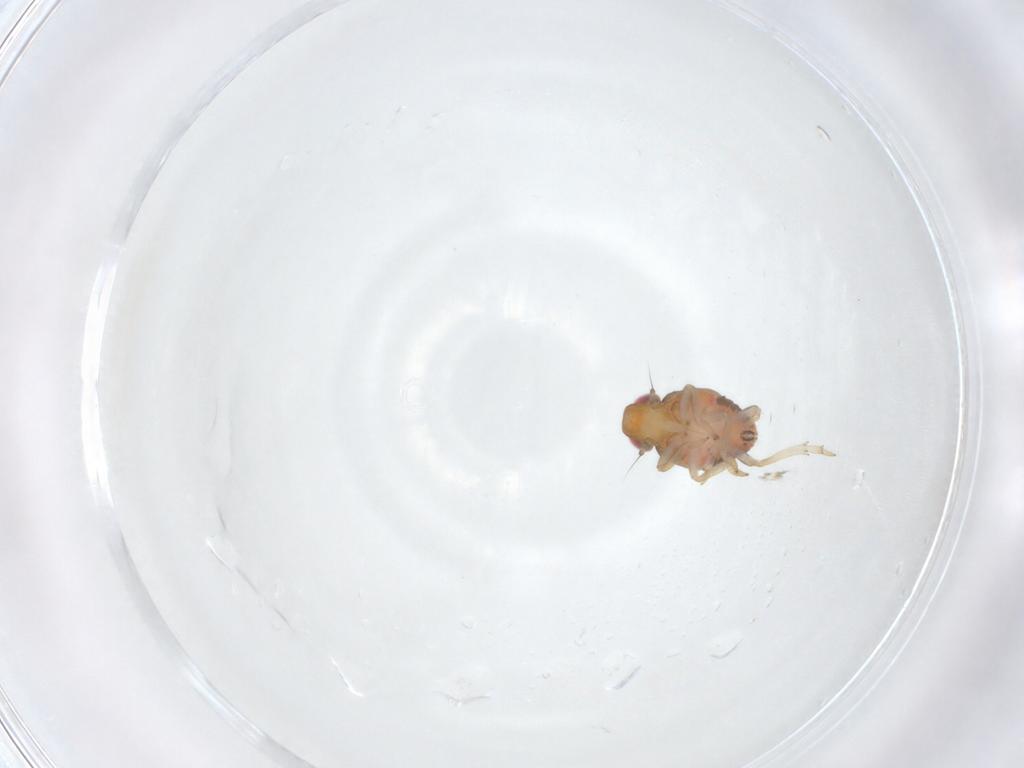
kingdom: Animalia
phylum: Arthropoda
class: Insecta
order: Hemiptera
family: Issidae
